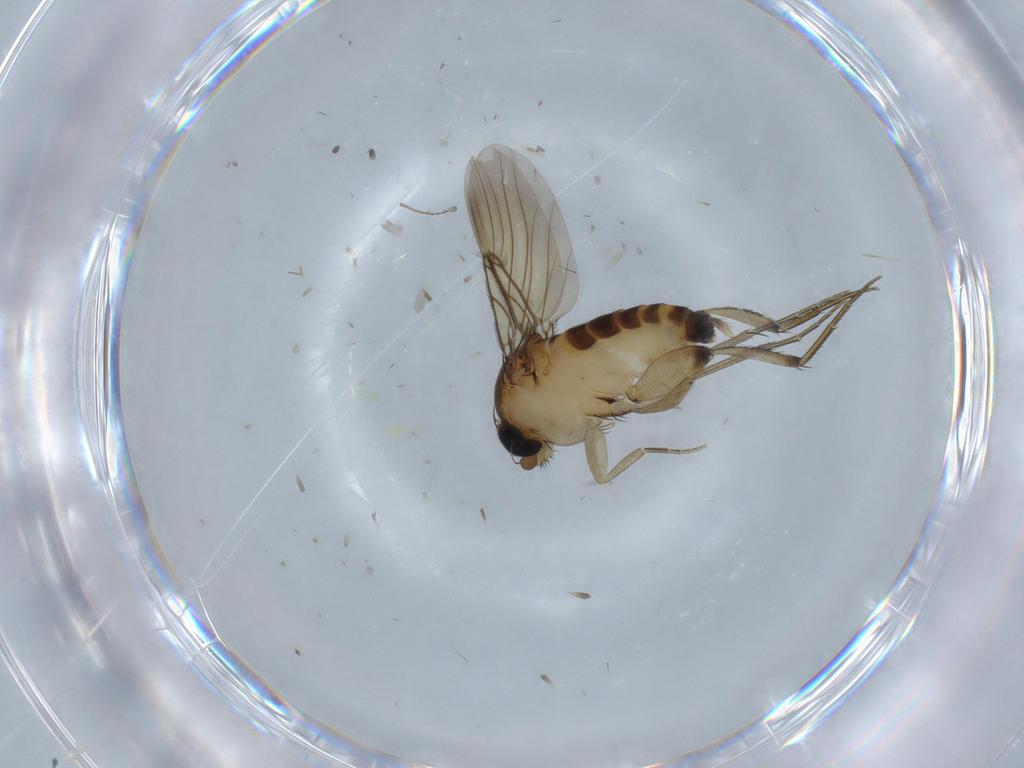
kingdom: Animalia
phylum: Arthropoda
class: Insecta
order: Diptera
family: Phoridae
